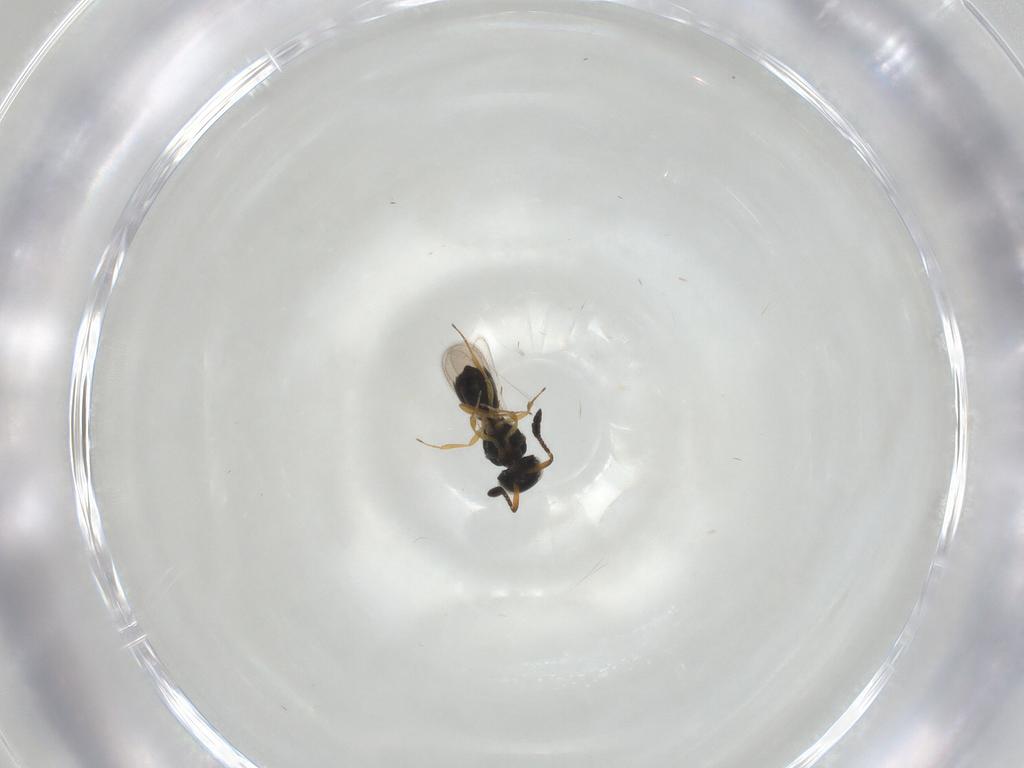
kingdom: Animalia
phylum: Arthropoda
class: Insecta
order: Hymenoptera
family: Scelionidae
